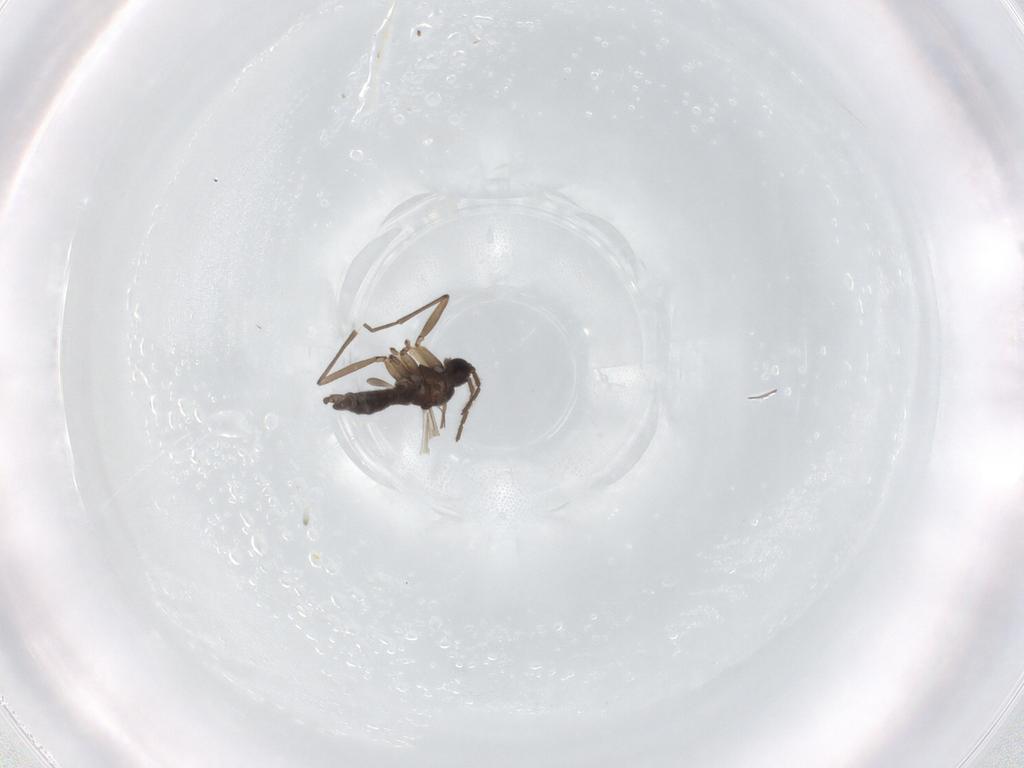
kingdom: Animalia
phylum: Arthropoda
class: Insecta
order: Diptera
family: Sciaridae
